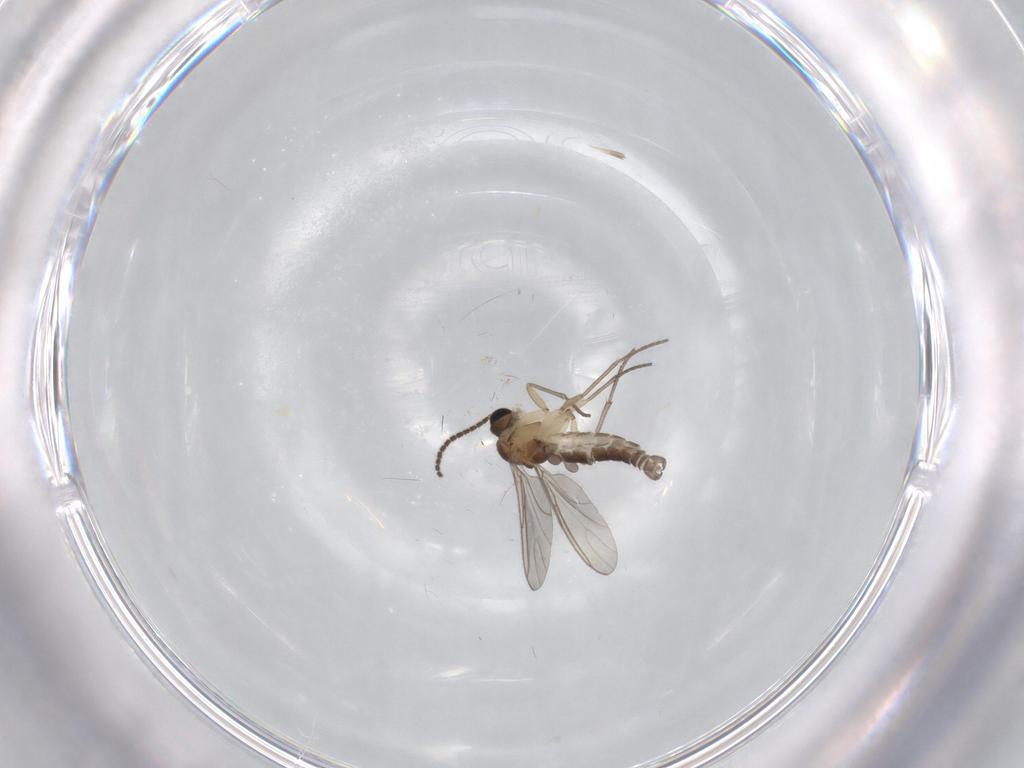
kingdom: Animalia
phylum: Arthropoda
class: Insecta
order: Diptera
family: Sciaridae
